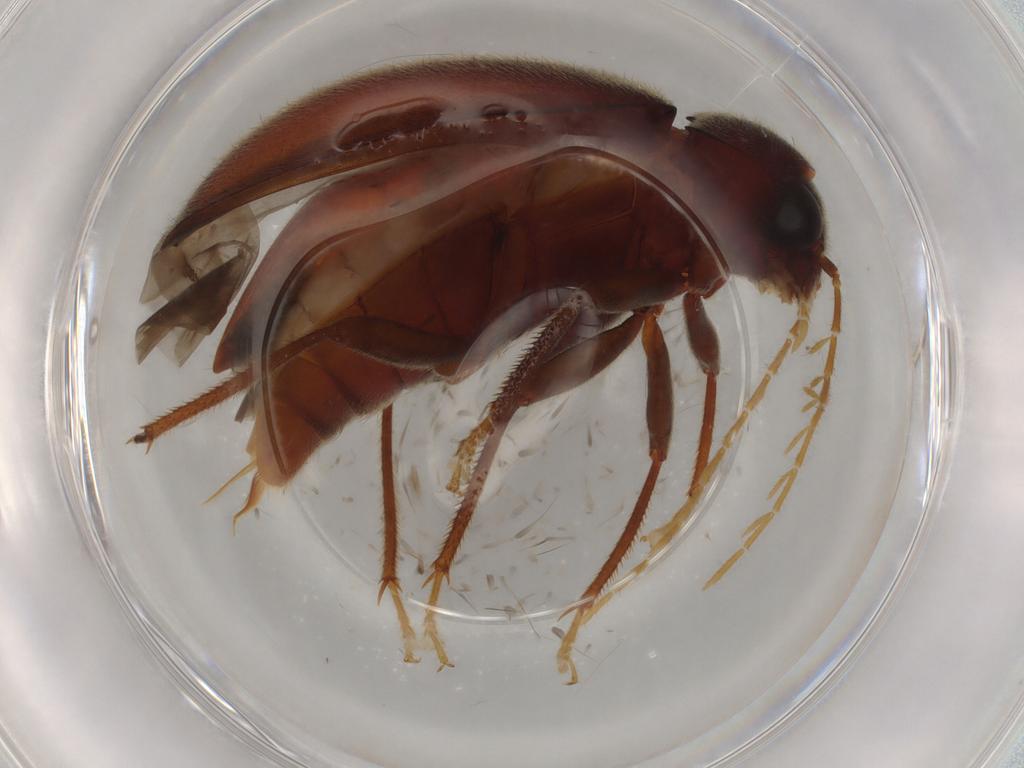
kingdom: Animalia
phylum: Arthropoda
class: Insecta
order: Coleoptera
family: Ptilodactylidae
